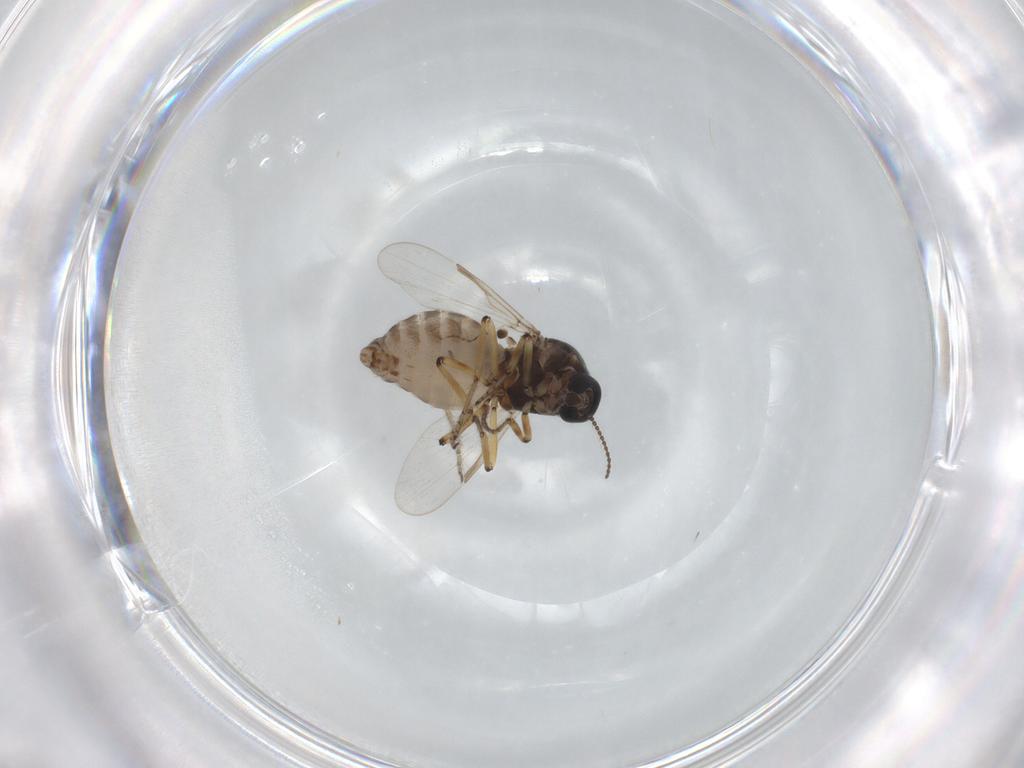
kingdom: Animalia
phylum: Arthropoda
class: Insecta
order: Diptera
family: Ceratopogonidae
